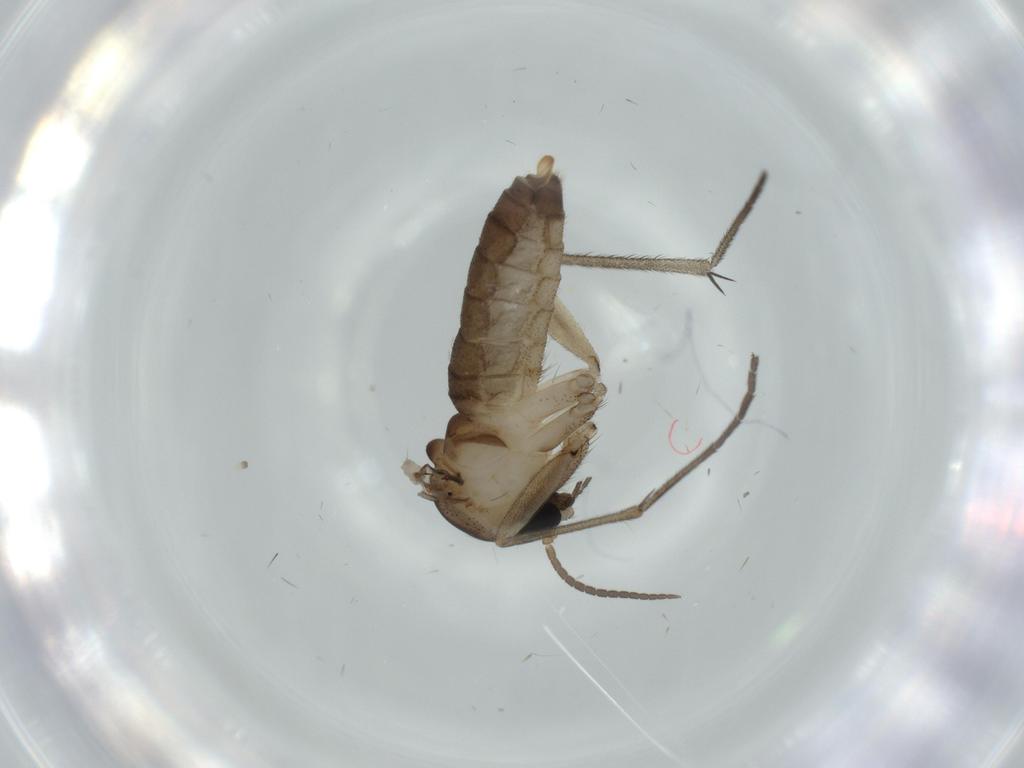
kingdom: Animalia
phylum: Arthropoda
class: Insecta
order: Diptera
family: Diadocidiidae
